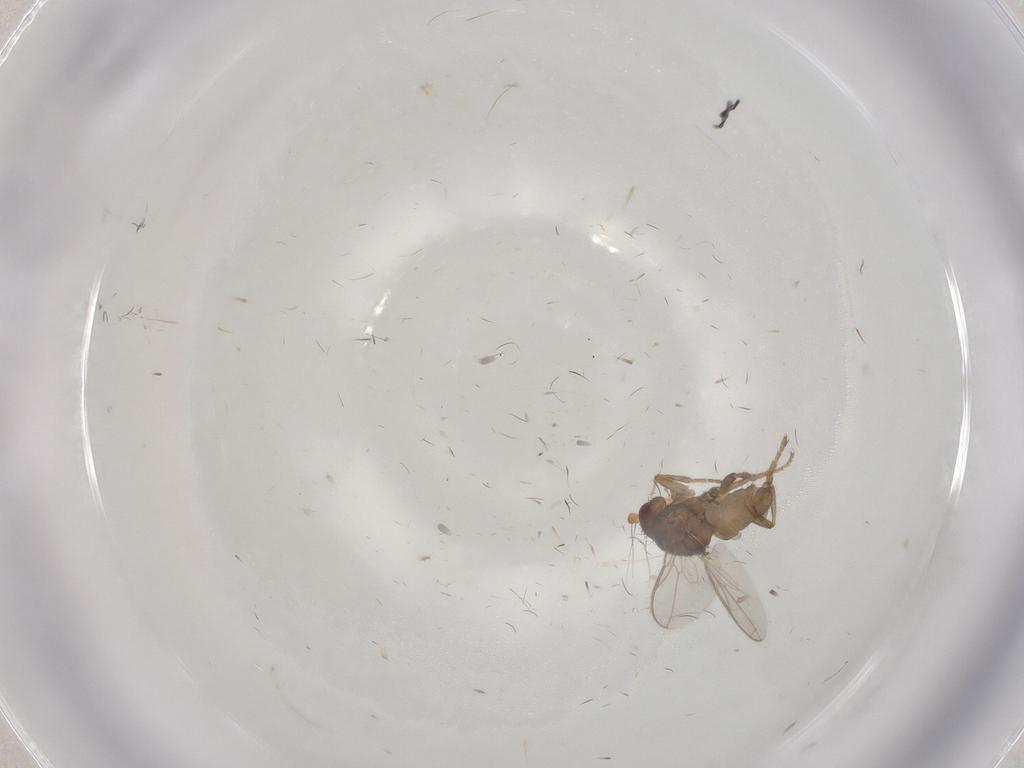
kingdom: Animalia
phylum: Arthropoda
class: Insecta
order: Diptera
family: Cecidomyiidae
